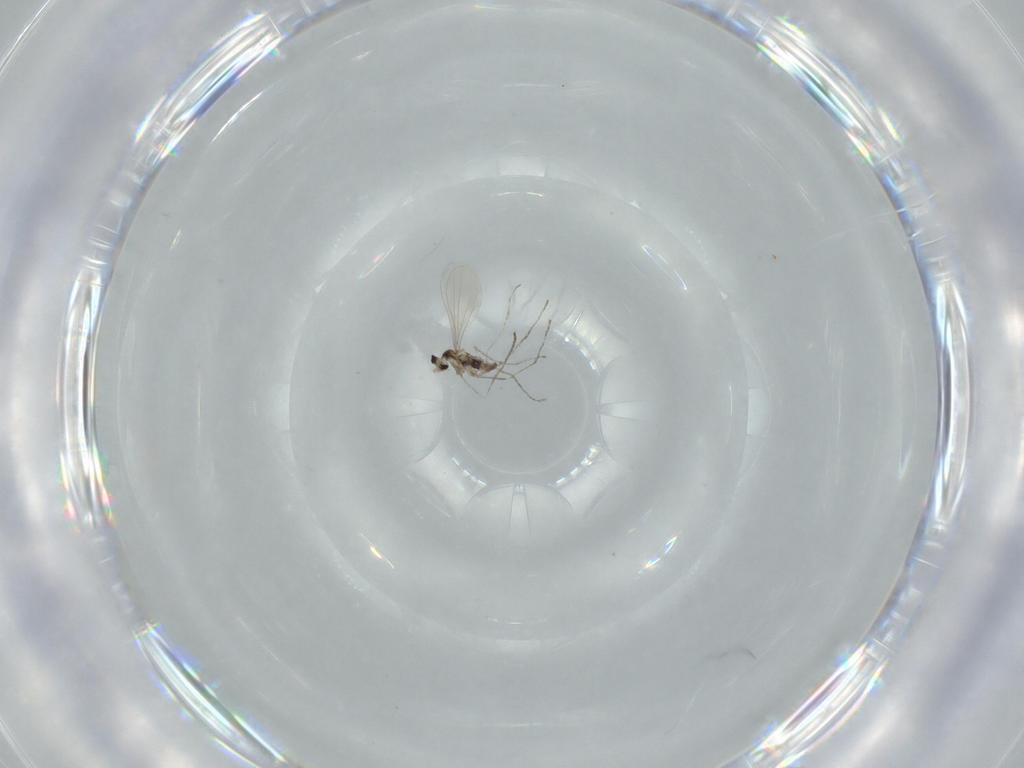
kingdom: Animalia
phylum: Arthropoda
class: Insecta
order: Diptera
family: Cecidomyiidae
